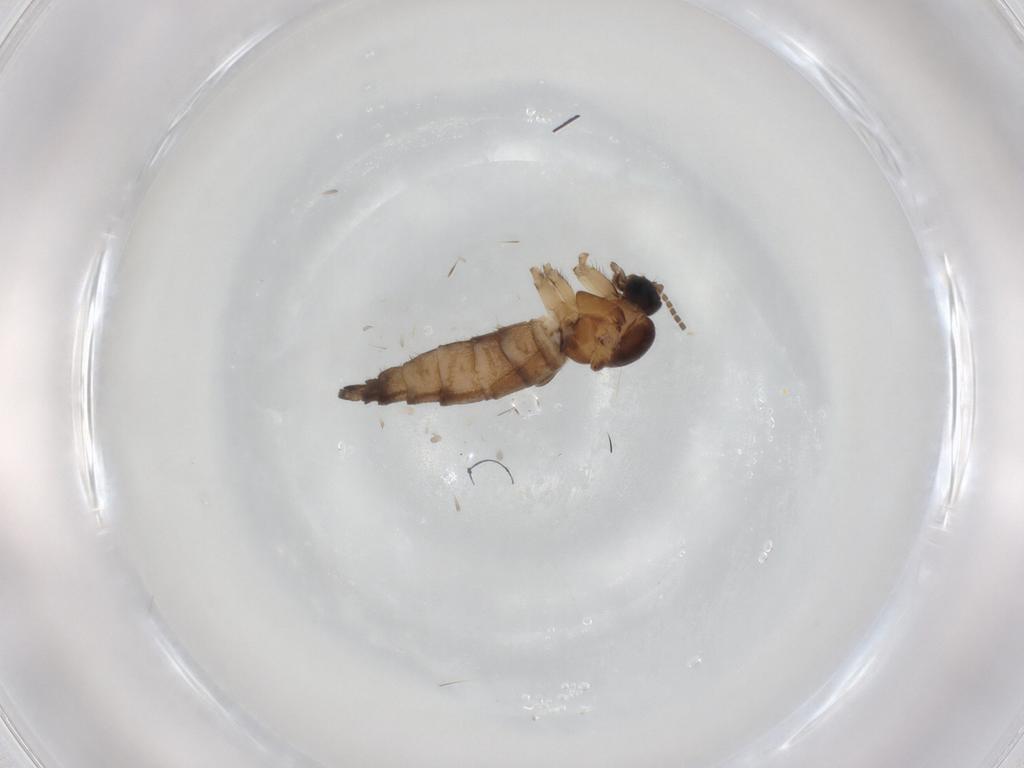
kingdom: Animalia
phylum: Arthropoda
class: Insecta
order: Diptera
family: Sciaridae
